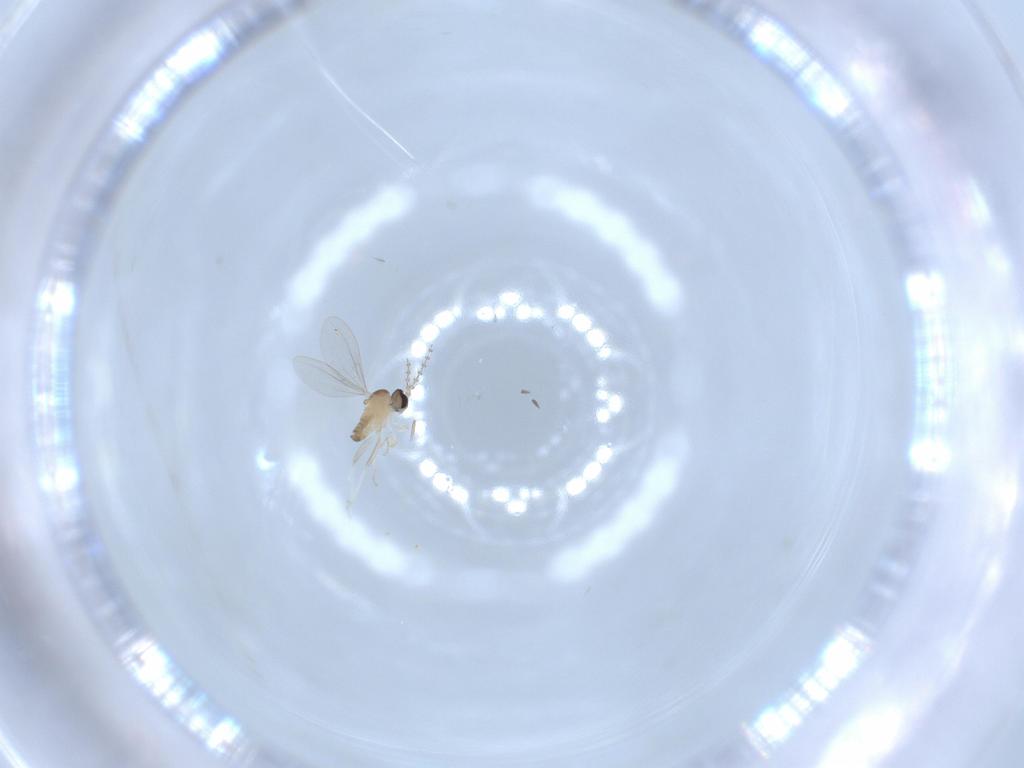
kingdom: Animalia
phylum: Arthropoda
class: Insecta
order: Diptera
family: Cecidomyiidae
